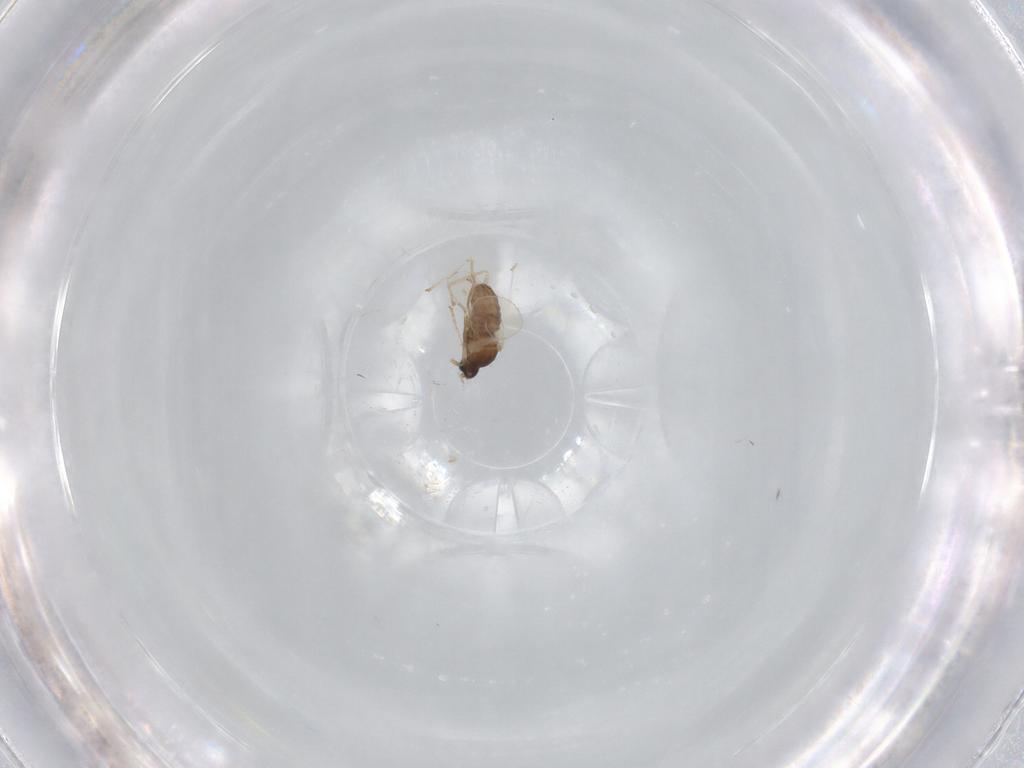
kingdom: Animalia
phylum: Arthropoda
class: Insecta
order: Diptera
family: Cecidomyiidae
